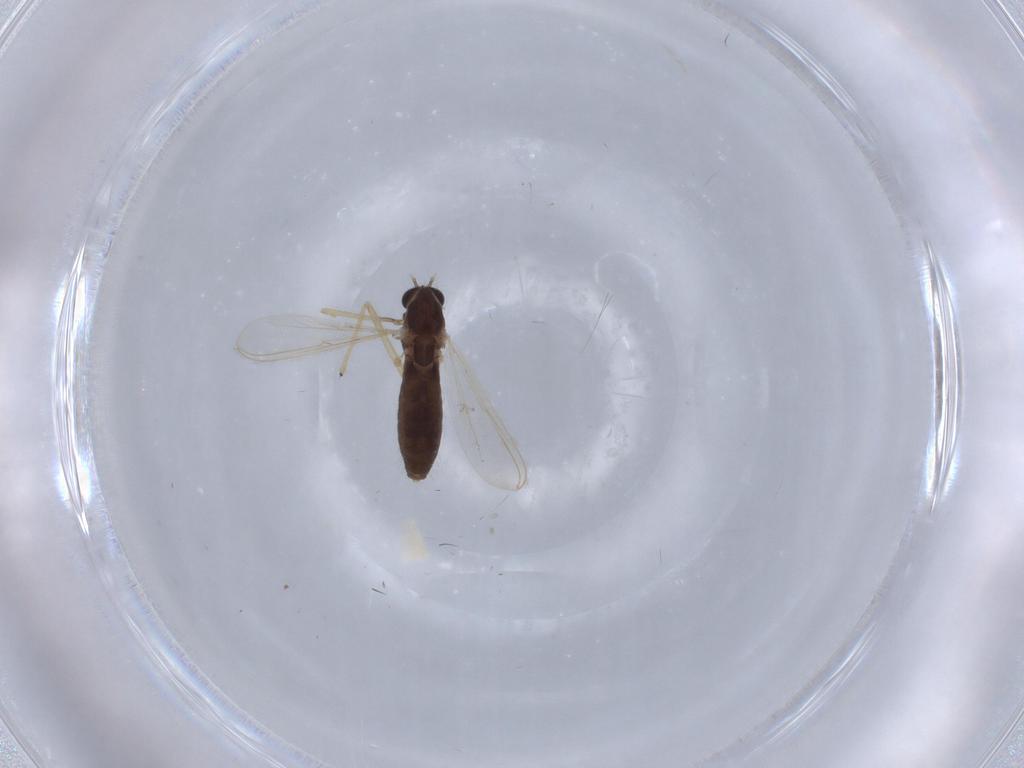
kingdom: Animalia
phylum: Arthropoda
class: Insecta
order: Diptera
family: Chironomidae
